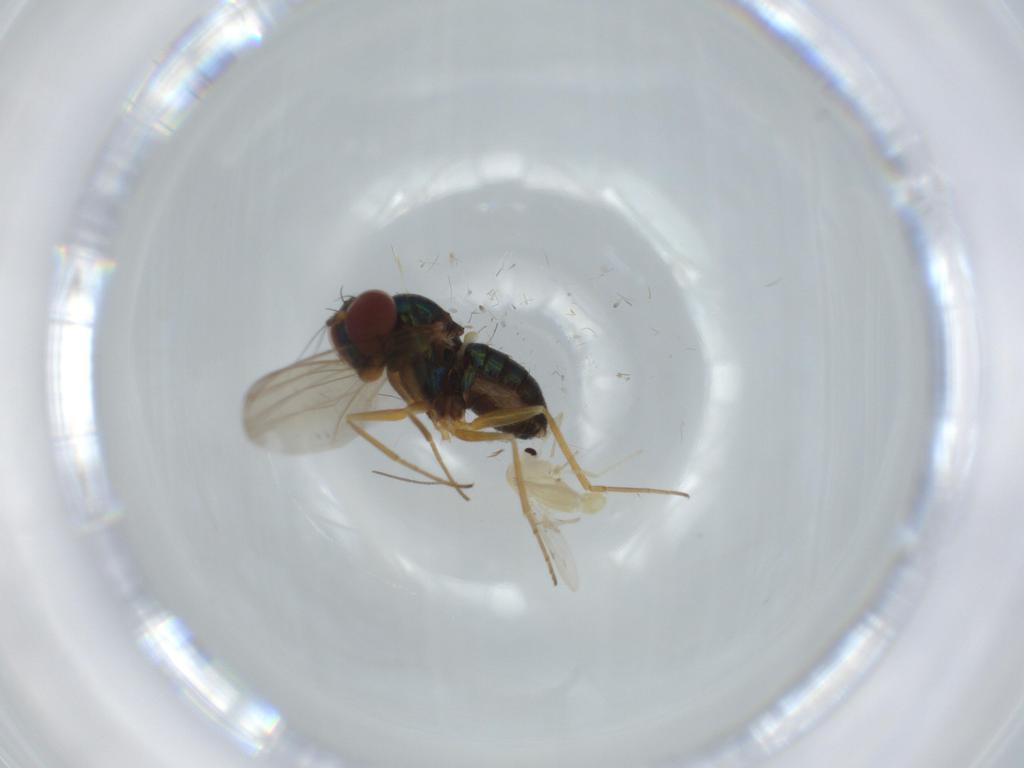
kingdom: Animalia
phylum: Arthropoda
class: Insecta
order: Diptera
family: Dolichopodidae
